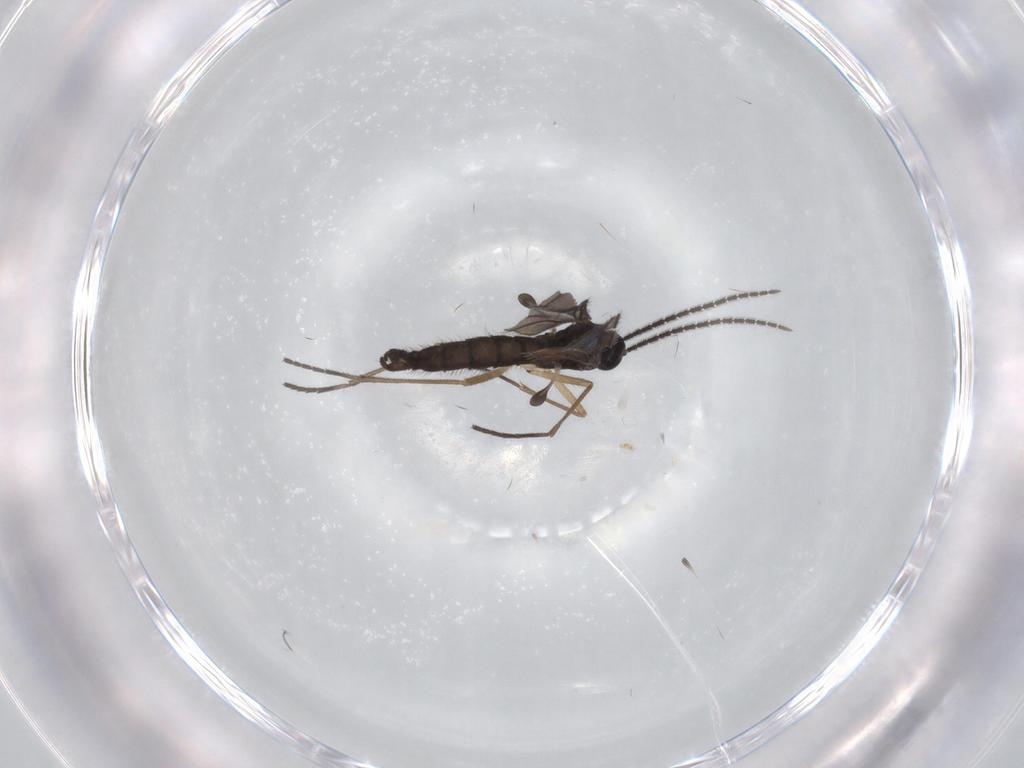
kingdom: Animalia
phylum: Arthropoda
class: Insecta
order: Diptera
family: Sciaridae
